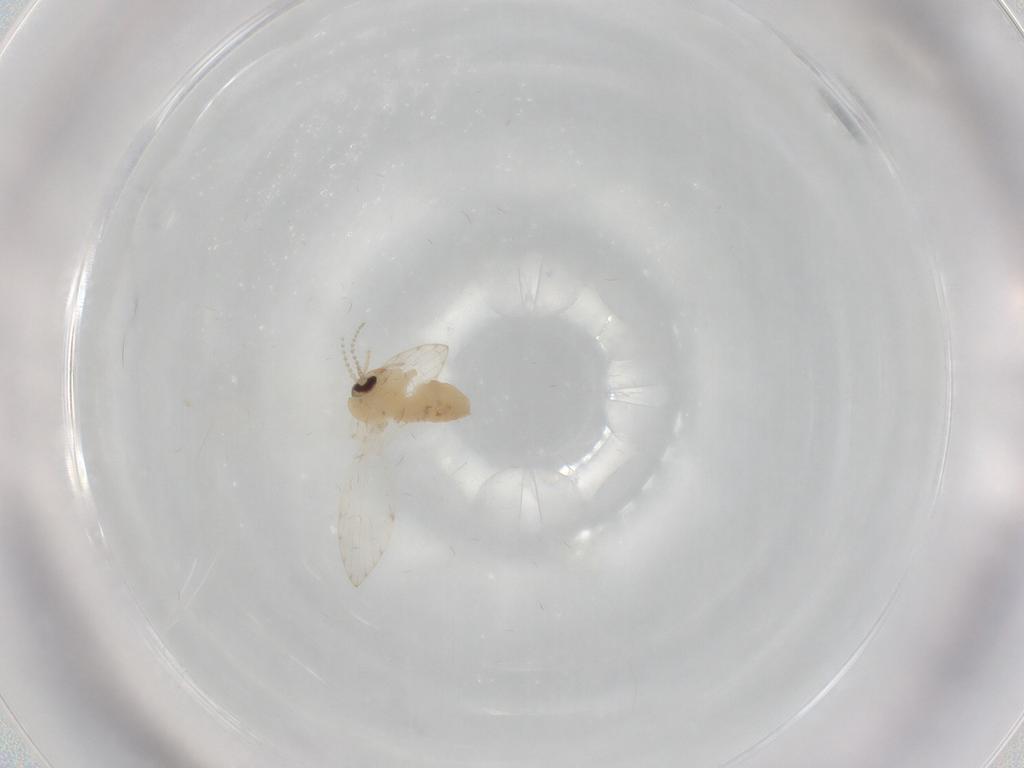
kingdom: Animalia
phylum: Arthropoda
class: Insecta
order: Diptera
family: Psychodidae
